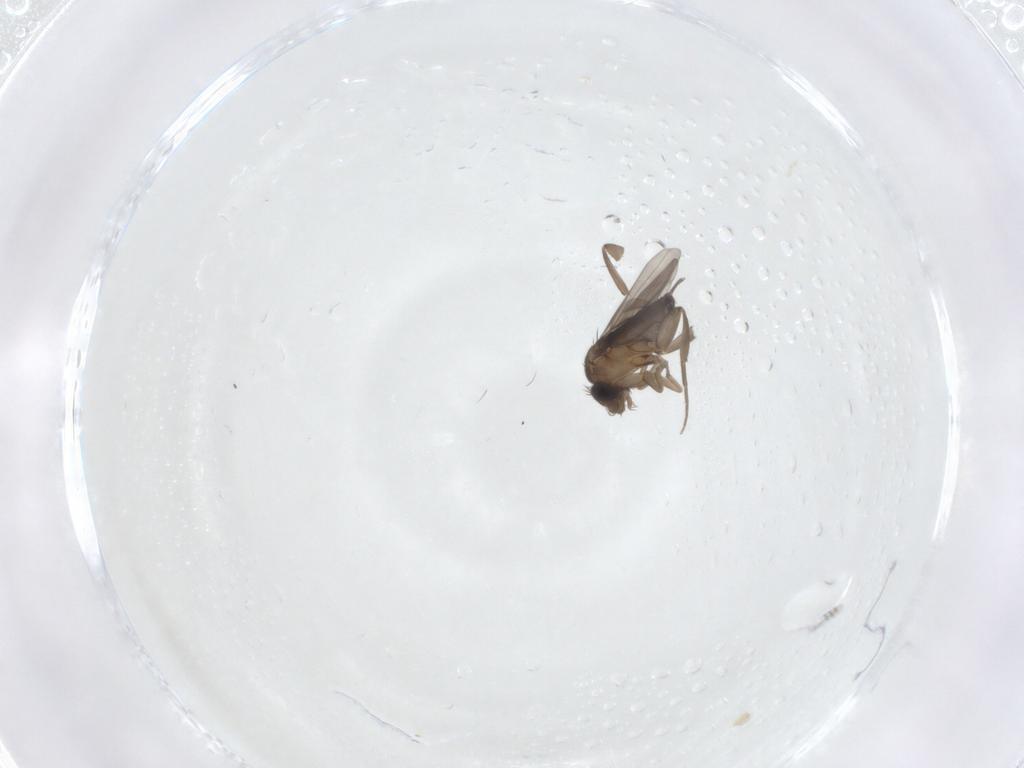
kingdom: Animalia
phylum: Arthropoda
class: Insecta
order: Diptera
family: Phoridae
